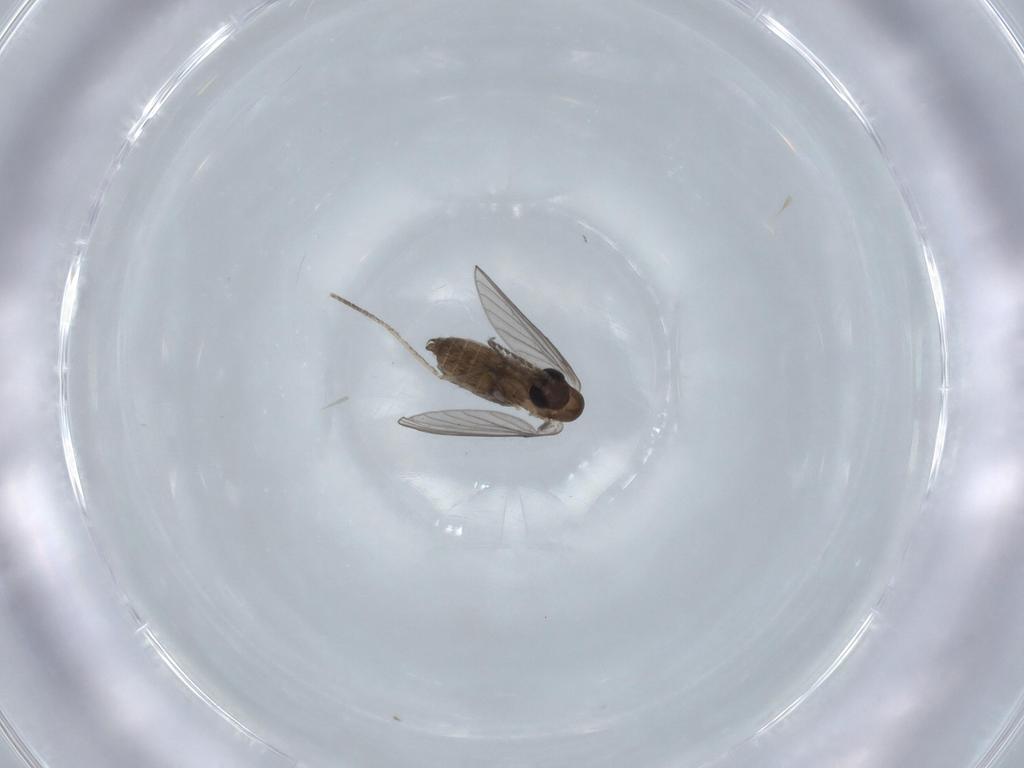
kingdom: Animalia
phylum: Arthropoda
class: Insecta
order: Diptera
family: Psychodidae
